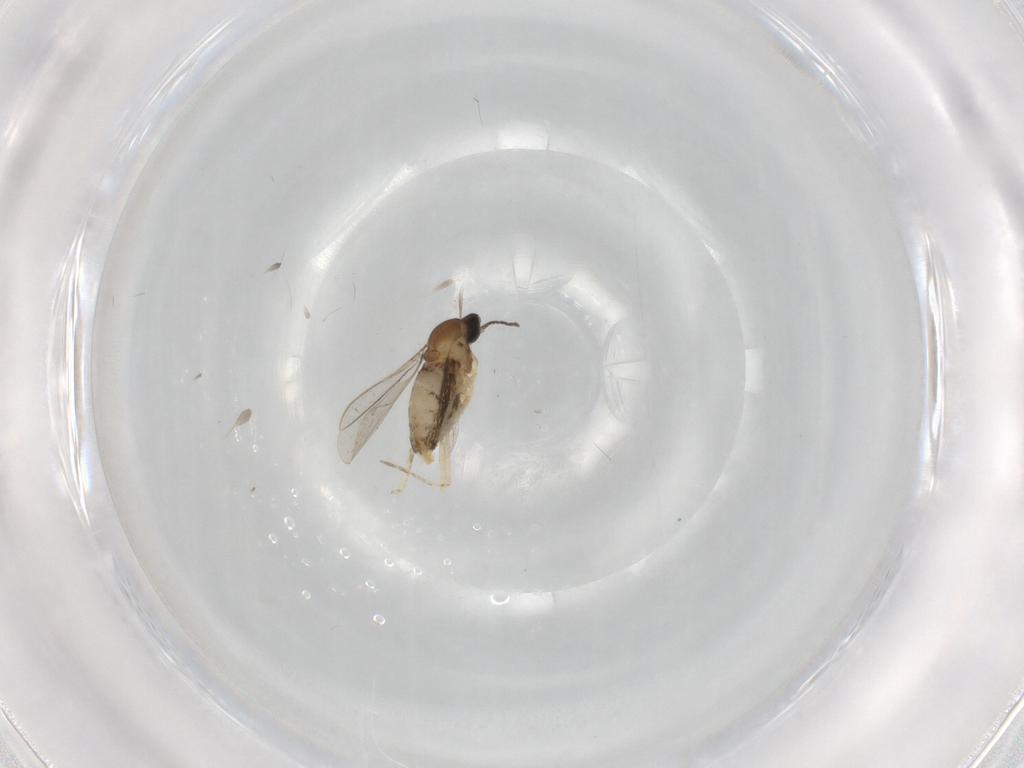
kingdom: Animalia
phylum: Arthropoda
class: Insecta
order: Diptera
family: Cecidomyiidae
